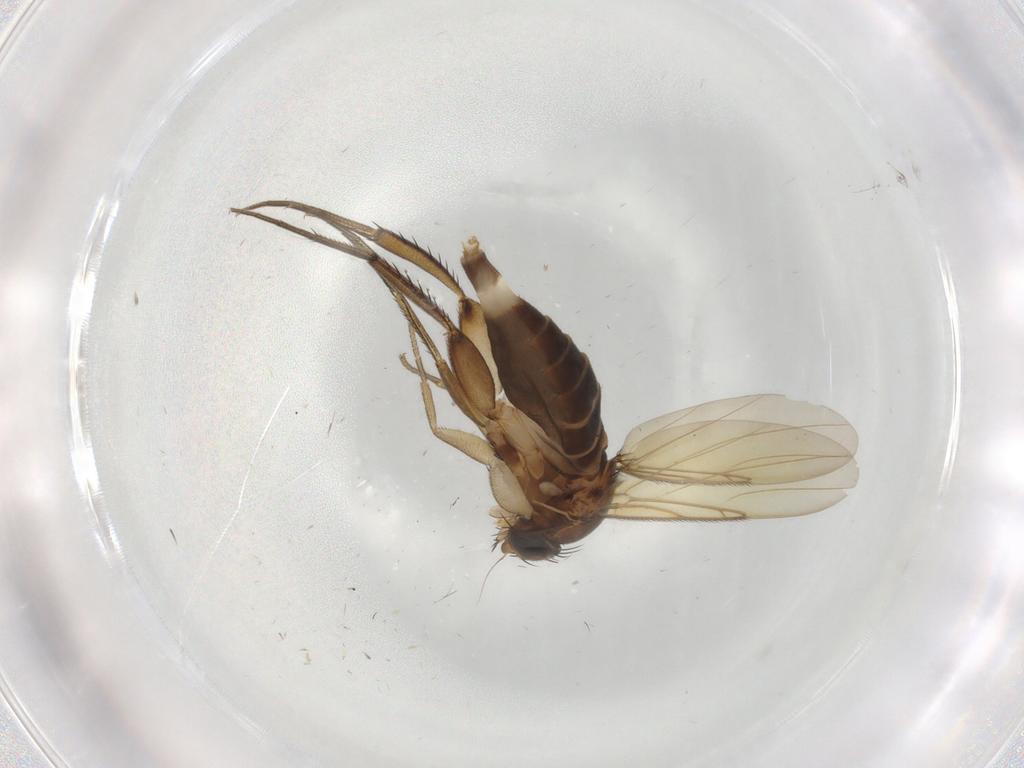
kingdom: Animalia
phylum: Arthropoda
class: Insecta
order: Diptera
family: Phoridae
